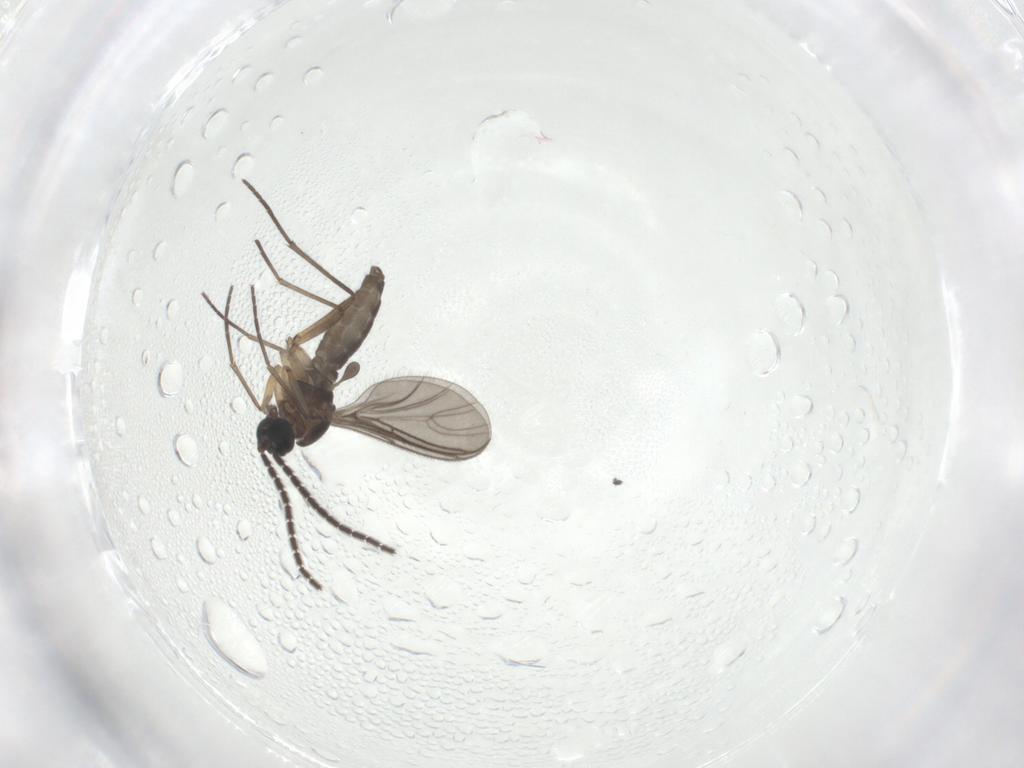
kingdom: Animalia
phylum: Arthropoda
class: Insecta
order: Diptera
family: Sciaridae
